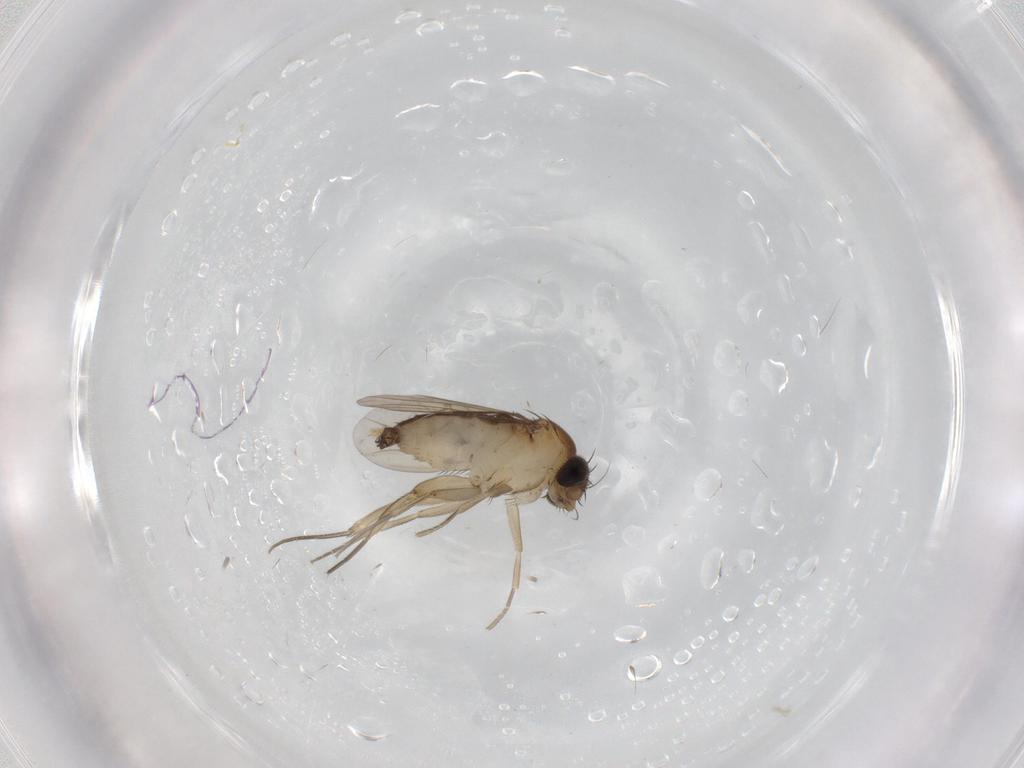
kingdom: Animalia
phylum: Arthropoda
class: Insecta
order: Diptera
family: Phoridae
